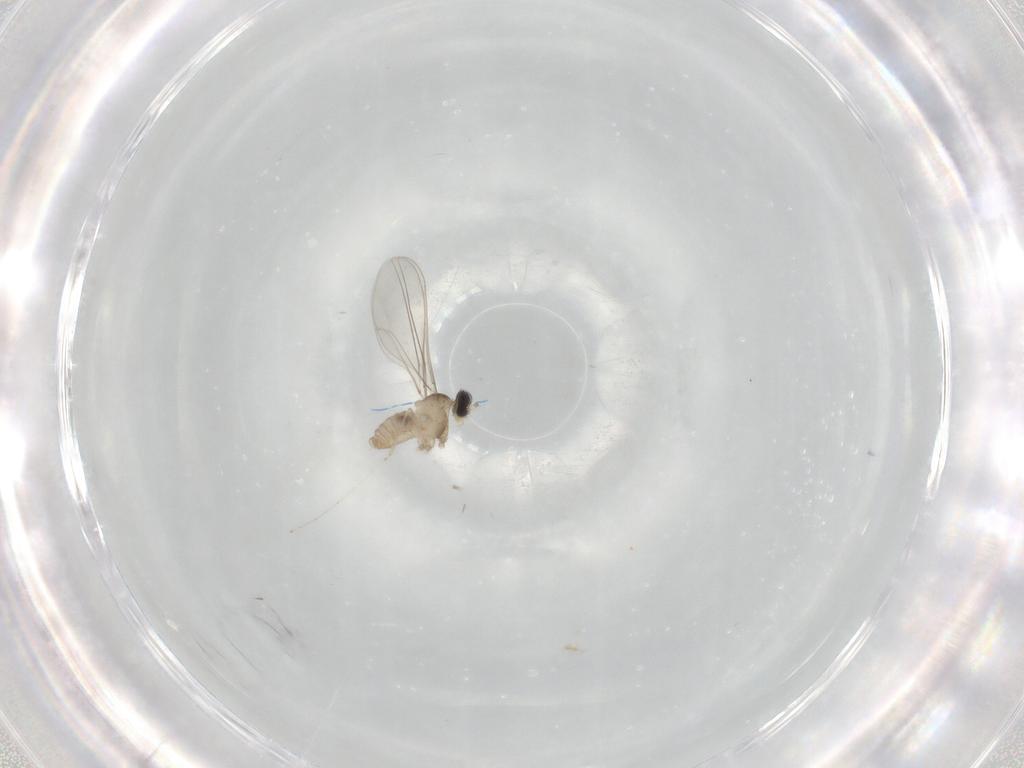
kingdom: Animalia
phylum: Arthropoda
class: Insecta
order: Diptera
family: Cecidomyiidae
